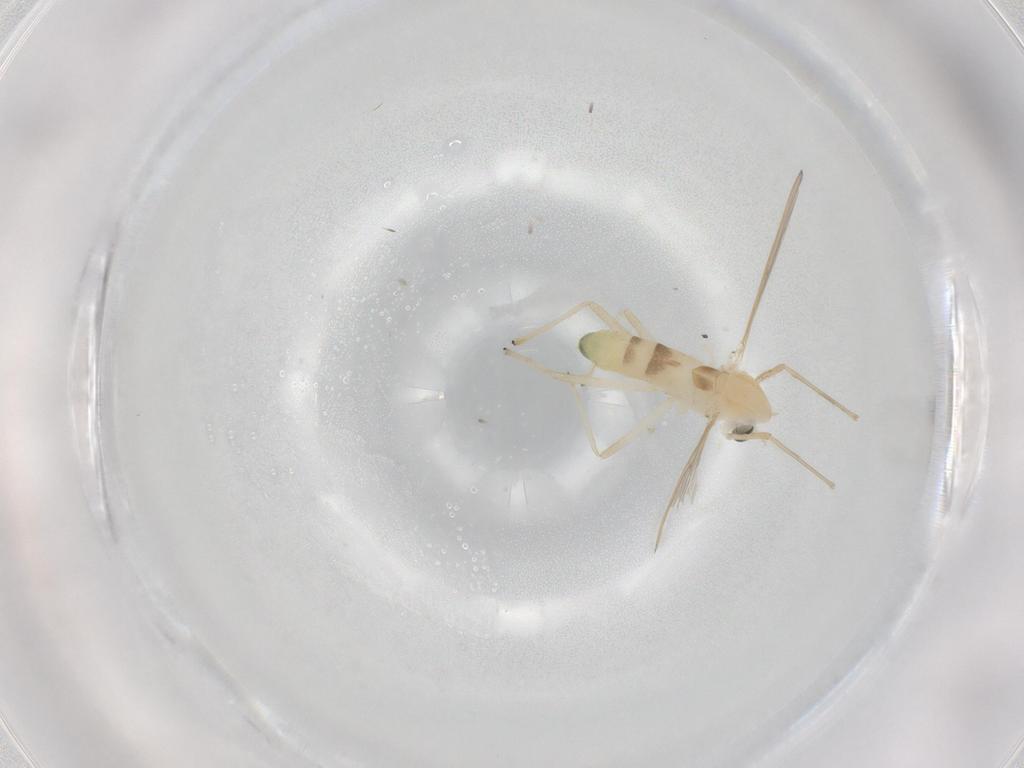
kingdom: Animalia
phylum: Arthropoda
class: Insecta
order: Diptera
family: Chironomidae
